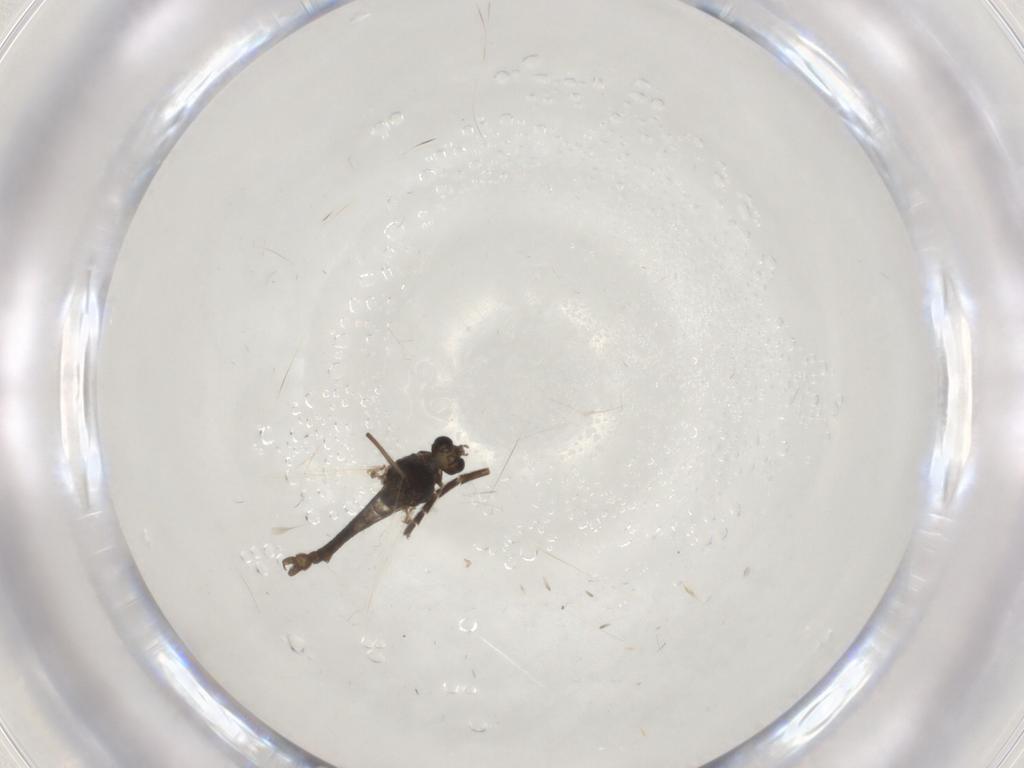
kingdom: Animalia
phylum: Arthropoda
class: Insecta
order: Diptera
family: Chironomidae
